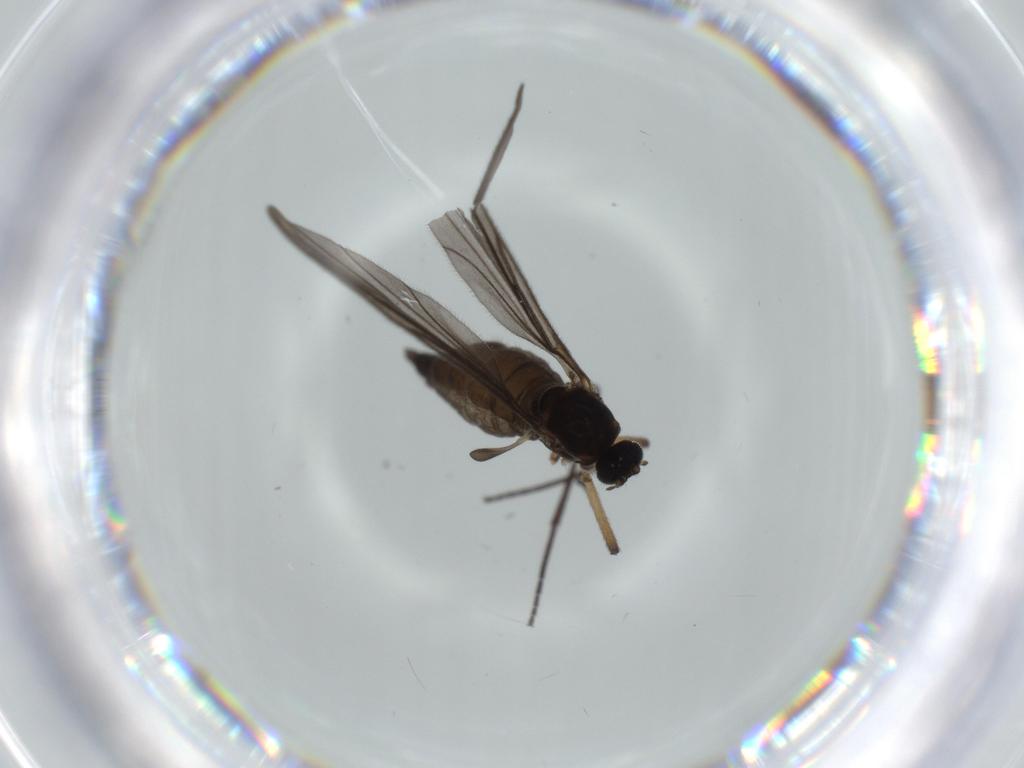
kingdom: Animalia
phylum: Arthropoda
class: Insecta
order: Diptera
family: Sciaridae
